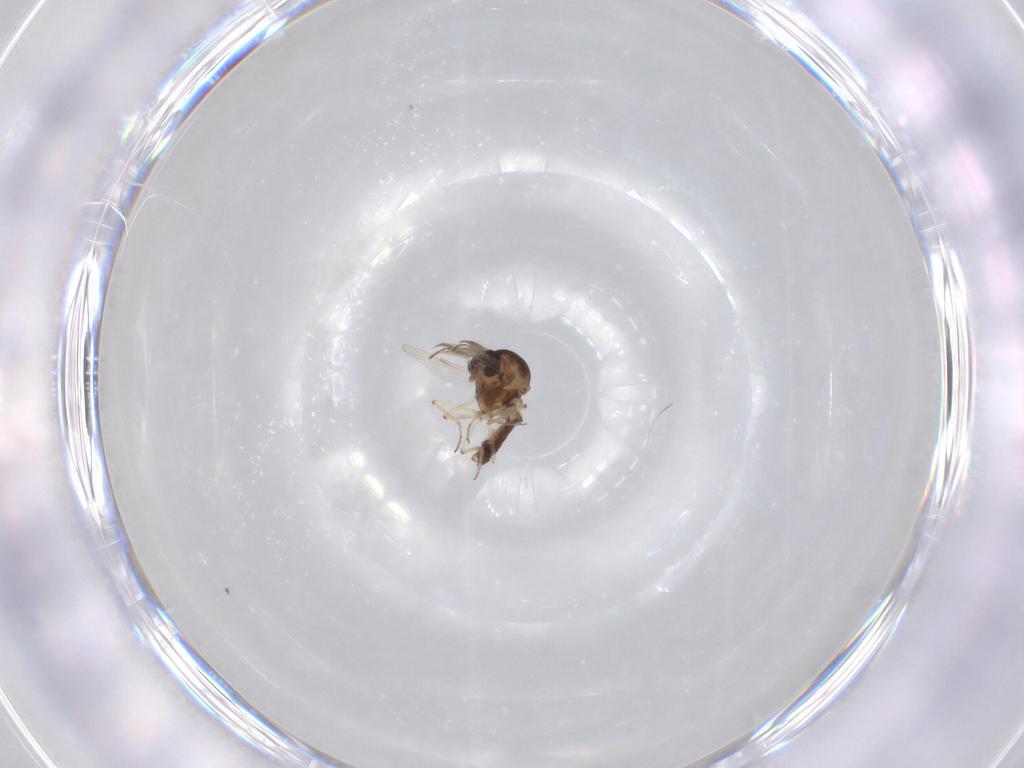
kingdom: Animalia
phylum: Arthropoda
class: Insecta
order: Diptera
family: Ceratopogonidae
